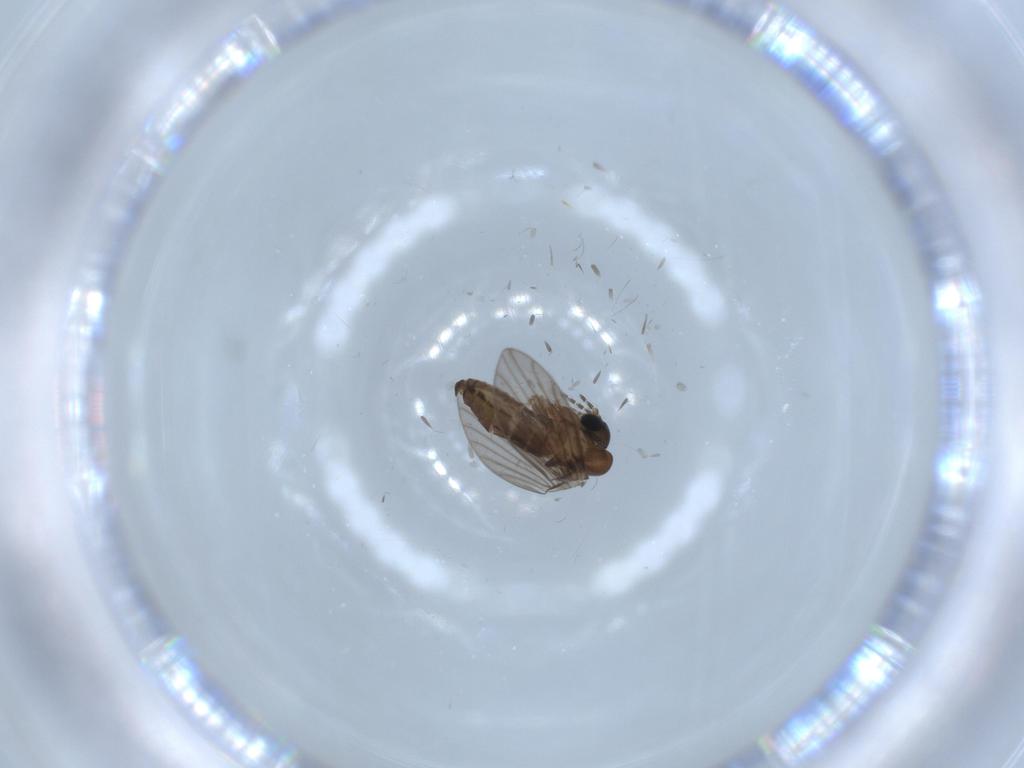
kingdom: Animalia
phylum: Arthropoda
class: Insecta
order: Diptera
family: Psychodidae
